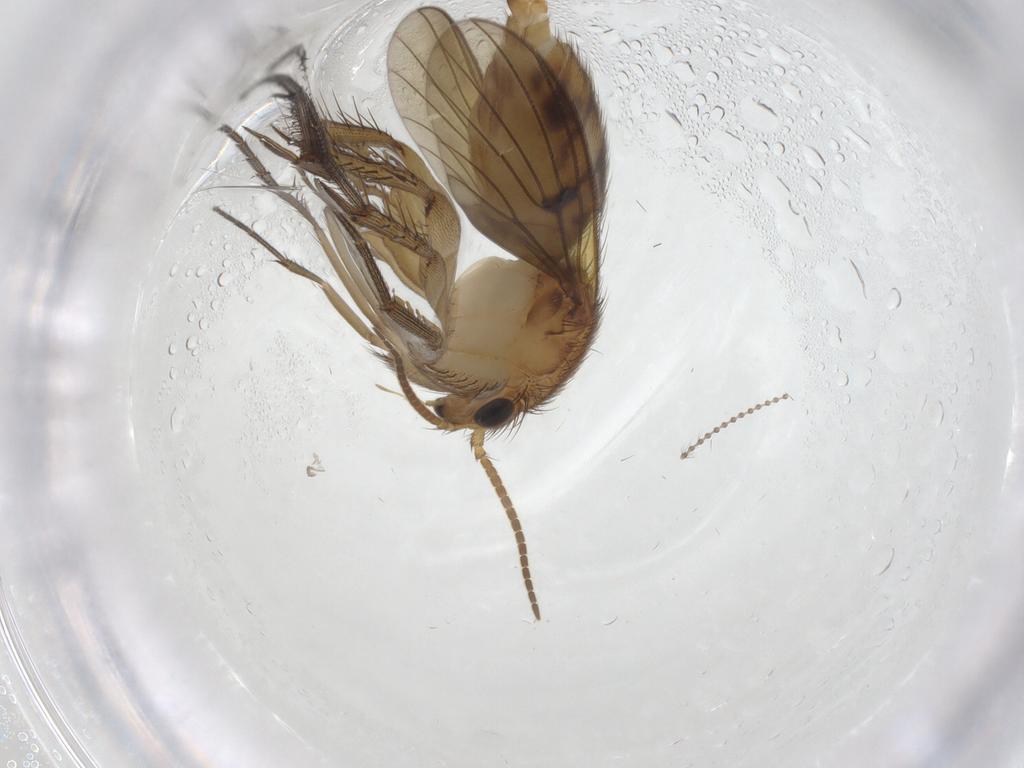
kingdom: Animalia
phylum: Arthropoda
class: Insecta
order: Diptera
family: Mycetophilidae
